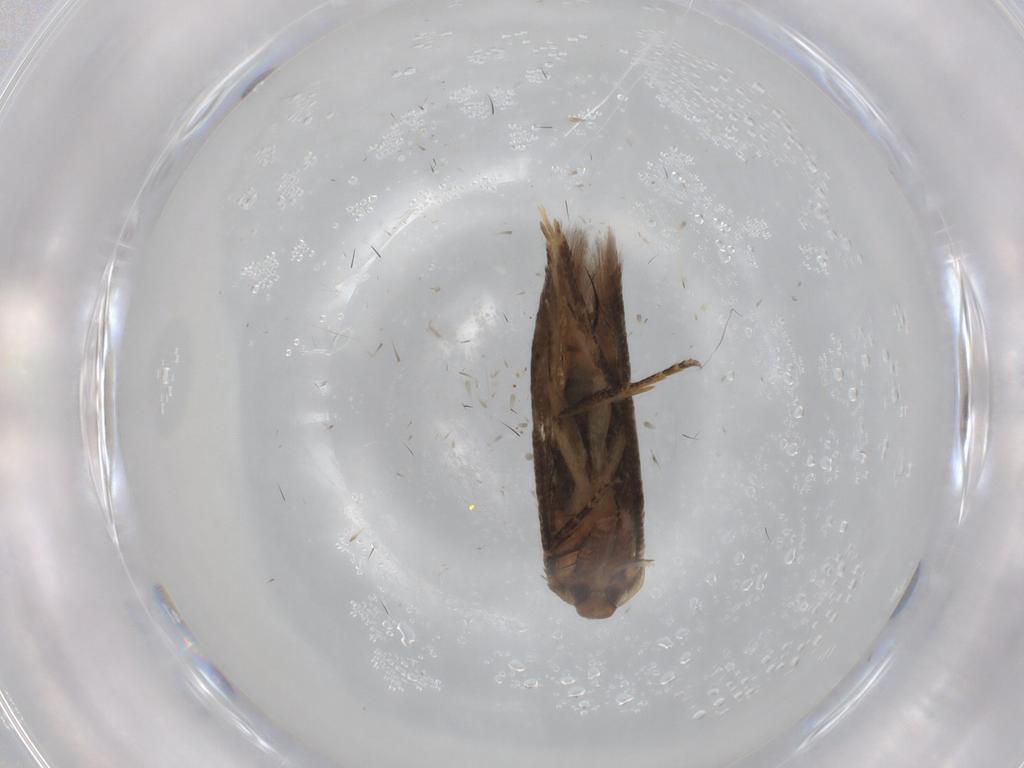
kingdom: Animalia
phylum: Arthropoda
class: Insecta
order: Lepidoptera
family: Cosmopterigidae
